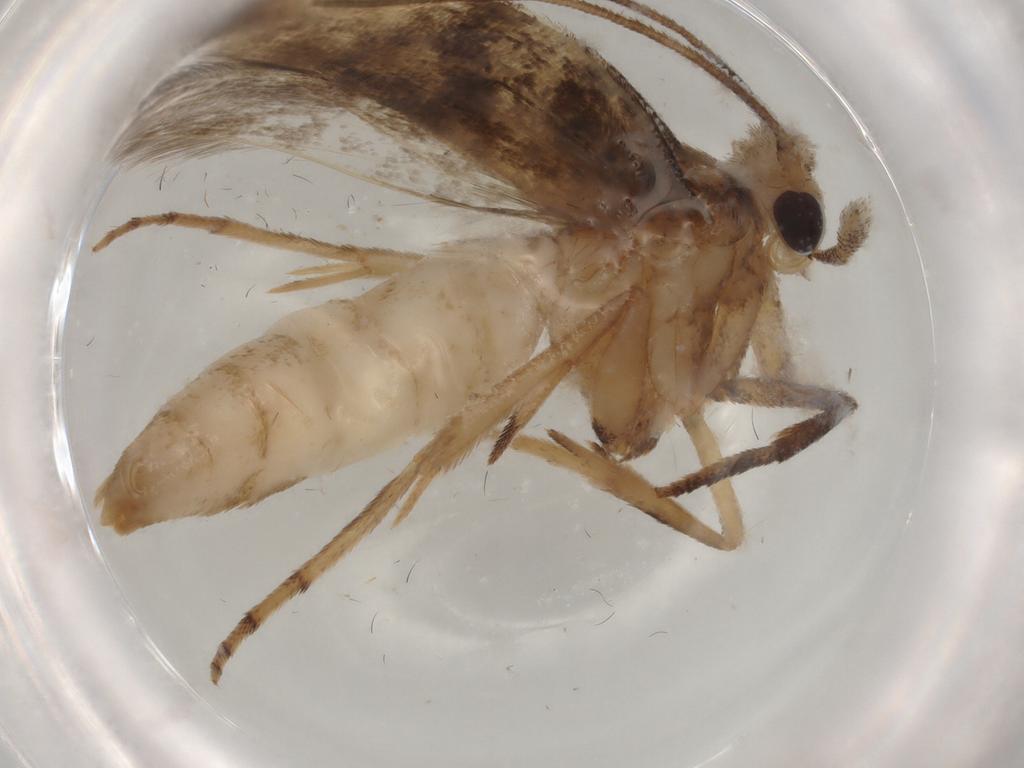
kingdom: Animalia
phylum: Arthropoda
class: Insecta
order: Lepidoptera
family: Yponomeutidae
